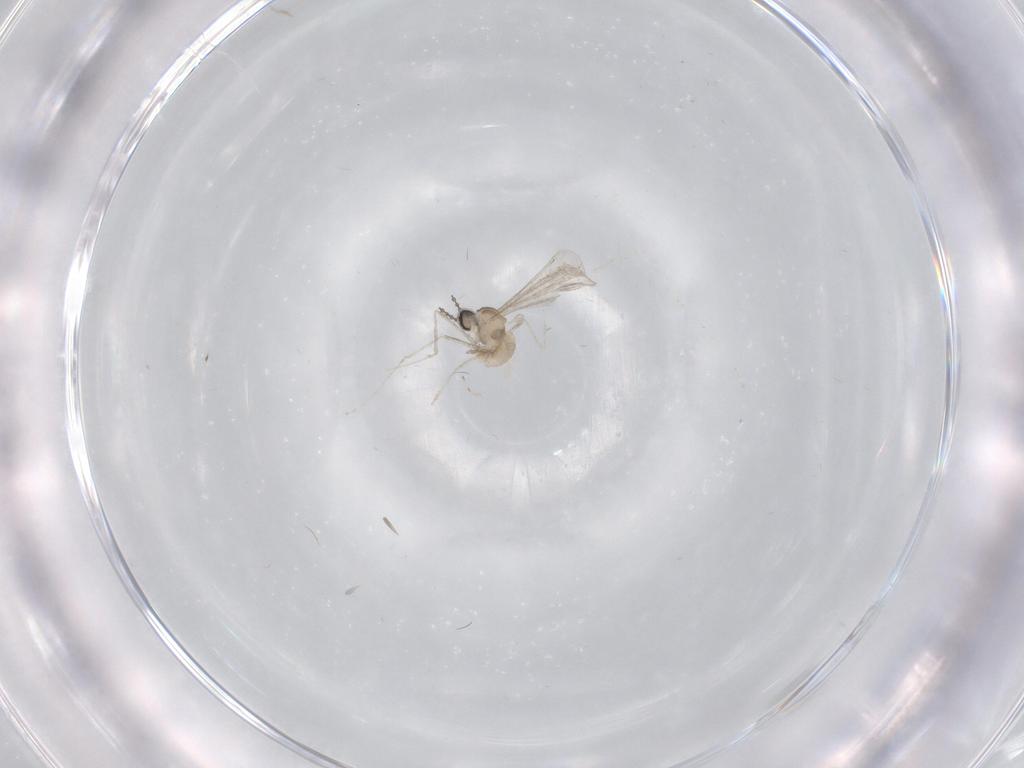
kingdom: Animalia
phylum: Arthropoda
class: Insecta
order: Diptera
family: Cecidomyiidae
